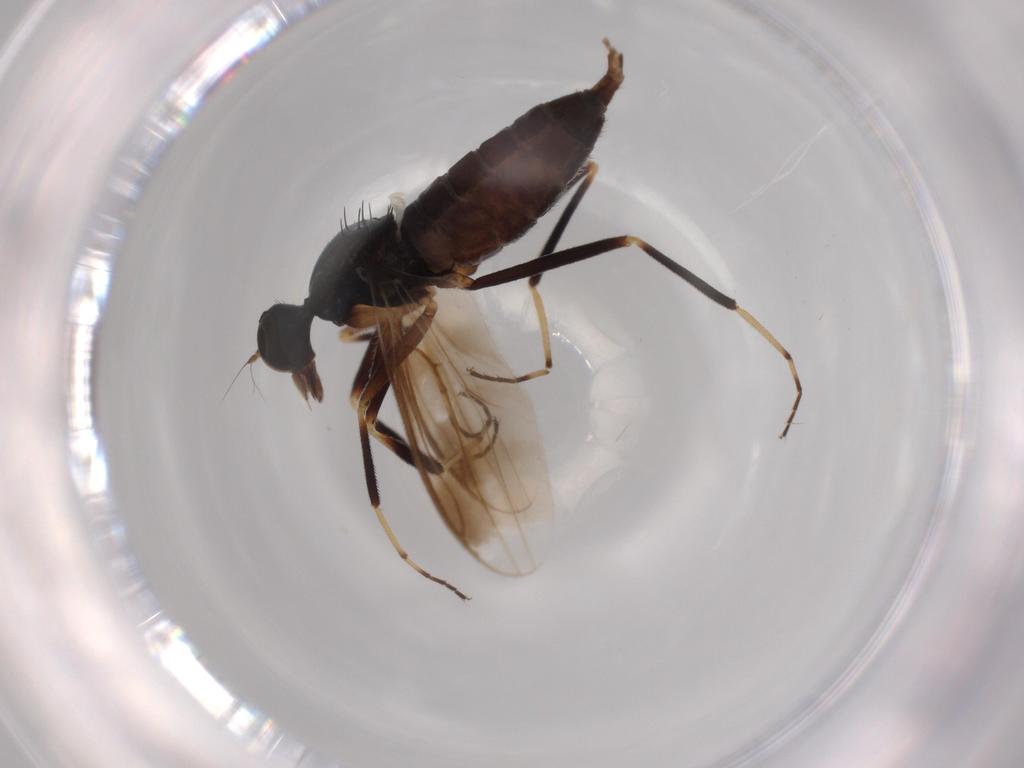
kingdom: Animalia
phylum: Arthropoda
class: Insecta
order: Diptera
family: Hybotidae
